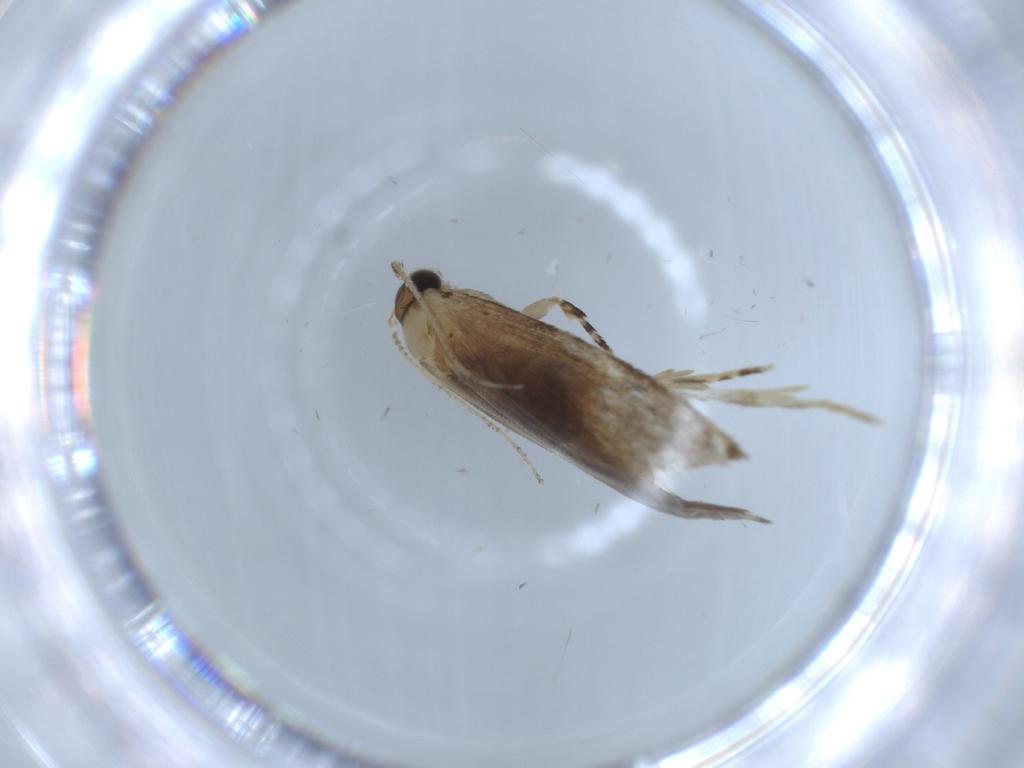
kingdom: Animalia
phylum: Arthropoda
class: Insecta
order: Lepidoptera
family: Tineidae
